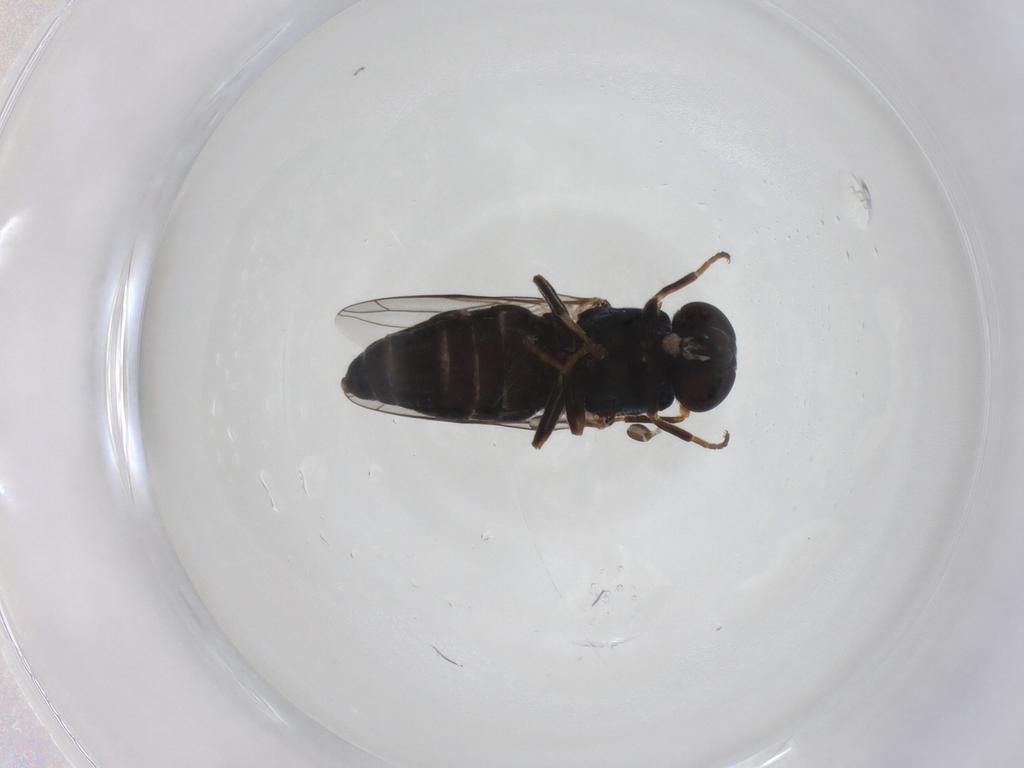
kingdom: Animalia
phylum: Arthropoda
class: Insecta
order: Diptera
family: Scenopinidae
